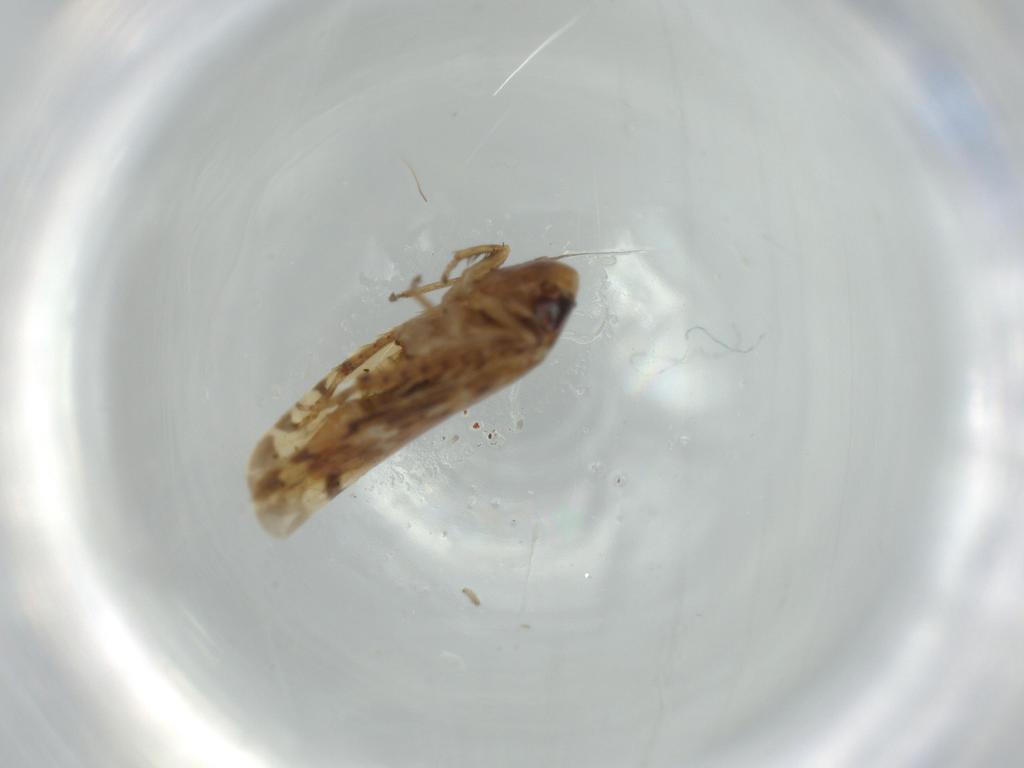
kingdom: Animalia
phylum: Arthropoda
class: Insecta
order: Hemiptera
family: Cicadellidae
